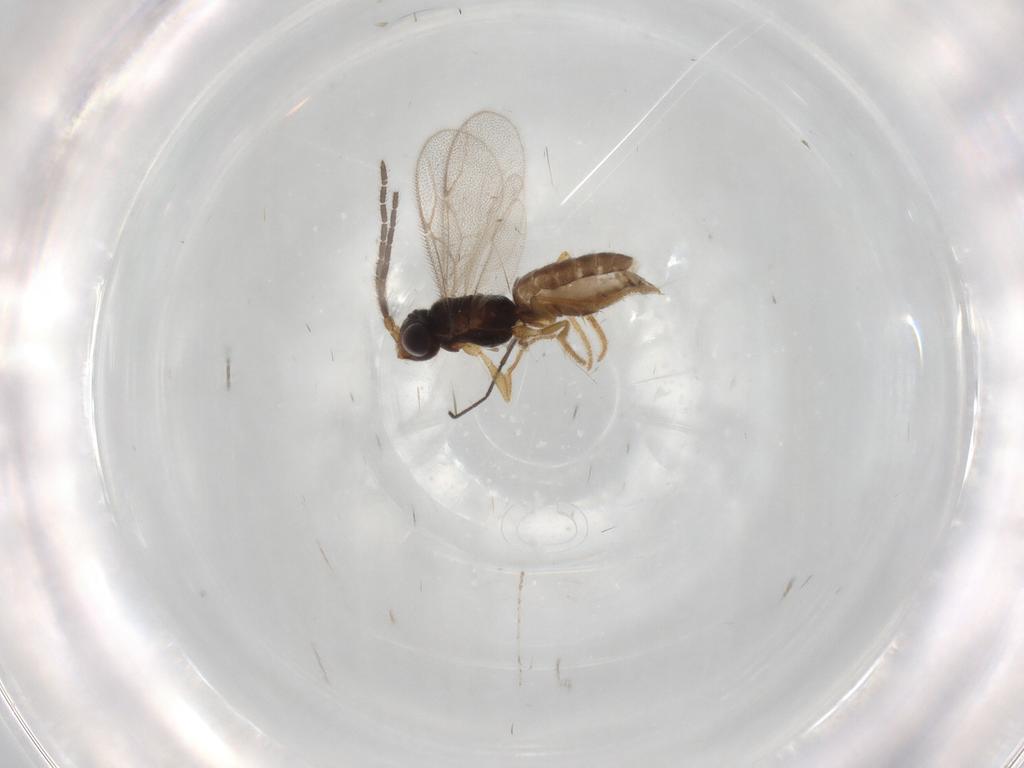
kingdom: Animalia
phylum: Arthropoda
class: Insecta
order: Hymenoptera
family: Dryinidae
